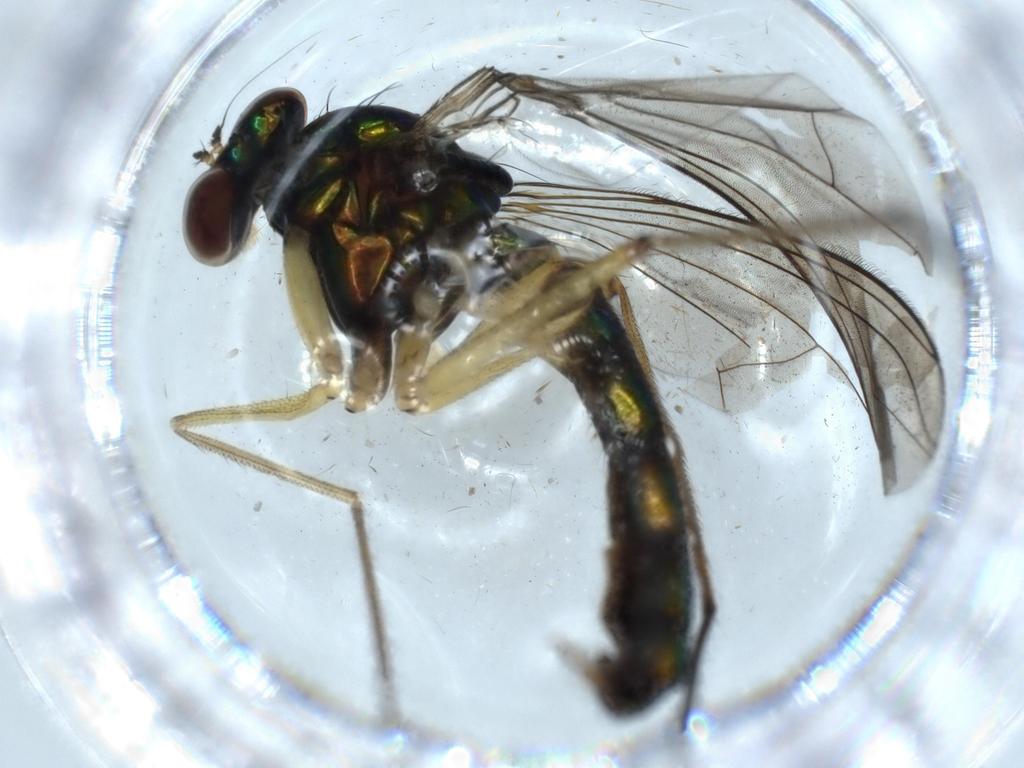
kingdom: Animalia
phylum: Arthropoda
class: Insecta
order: Diptera
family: Dolichopodidae
